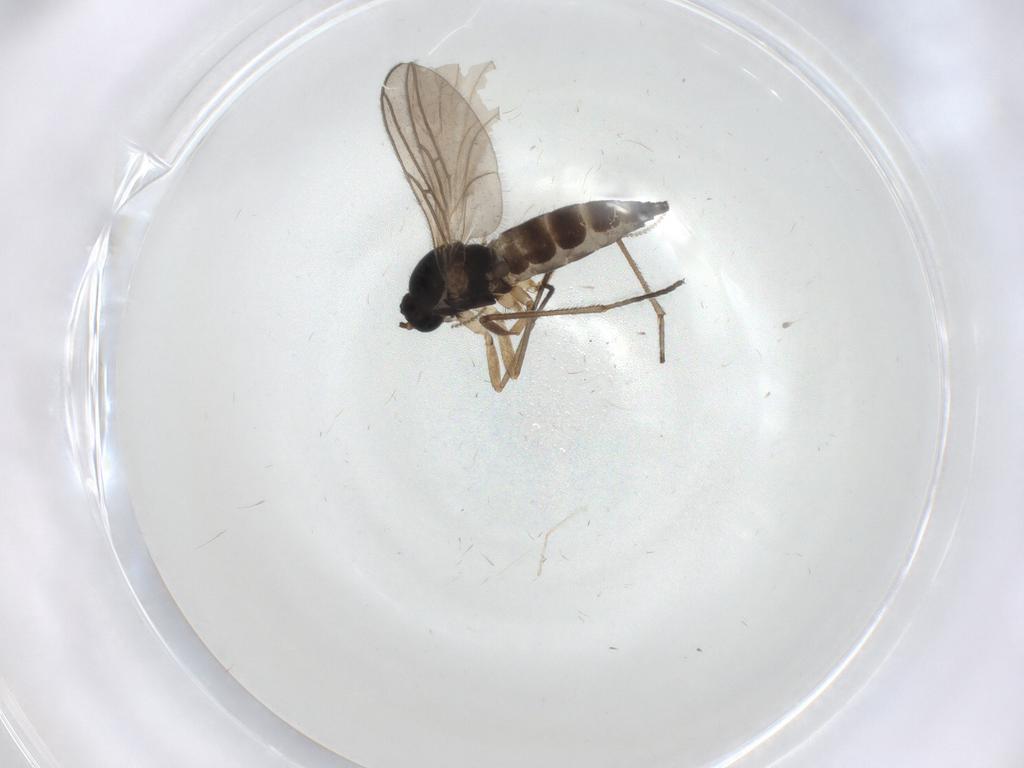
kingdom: Animalia
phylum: Arthropoda
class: Insecta
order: Diptera
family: Sciaridae
